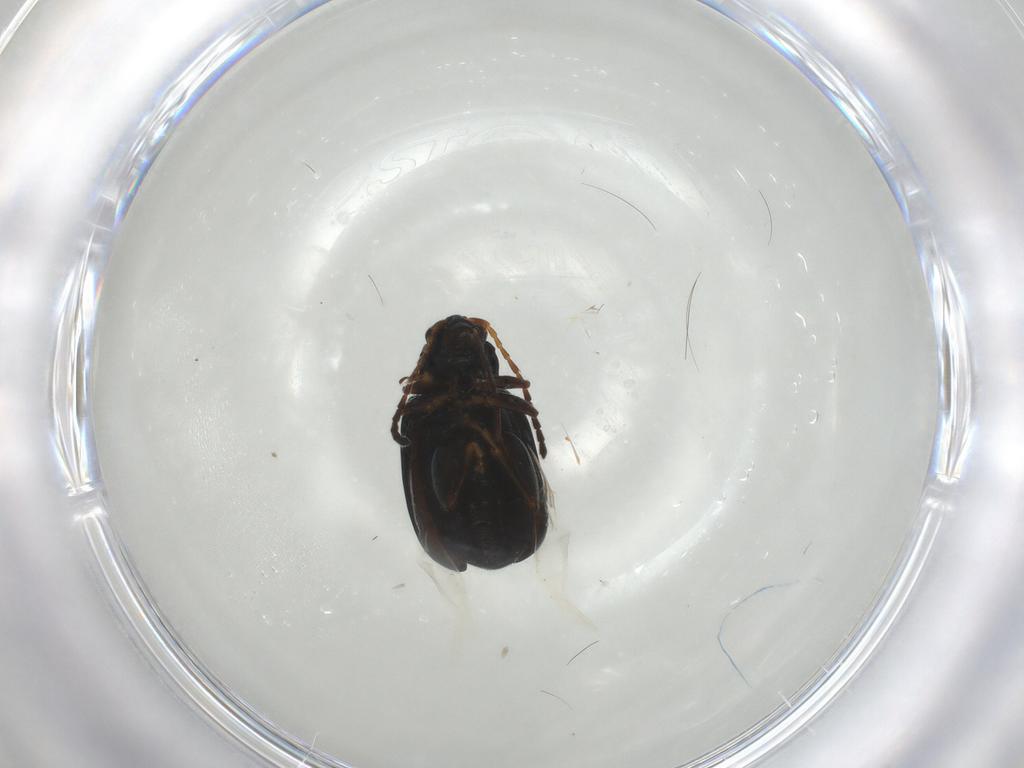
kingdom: Animalia
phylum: Arthropoda
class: Insecta
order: Coleoptera
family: Chrysomelidae
